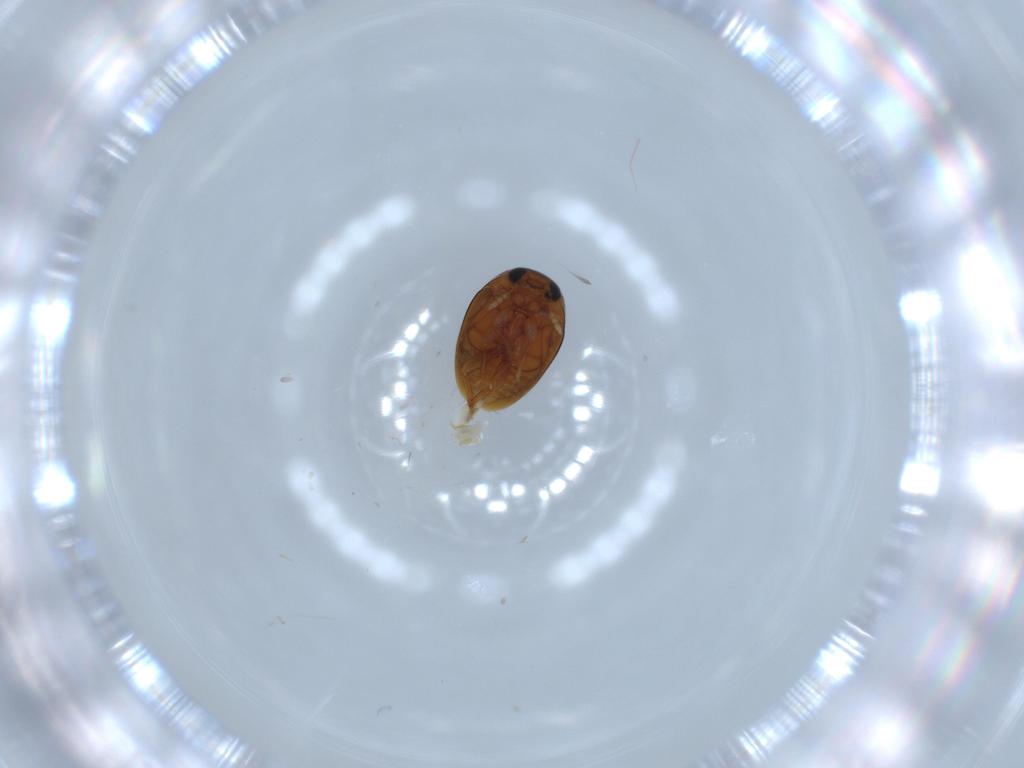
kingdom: Animalia
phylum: Arthropoda
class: Insecta
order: Coleoptera
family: Phalacridae
